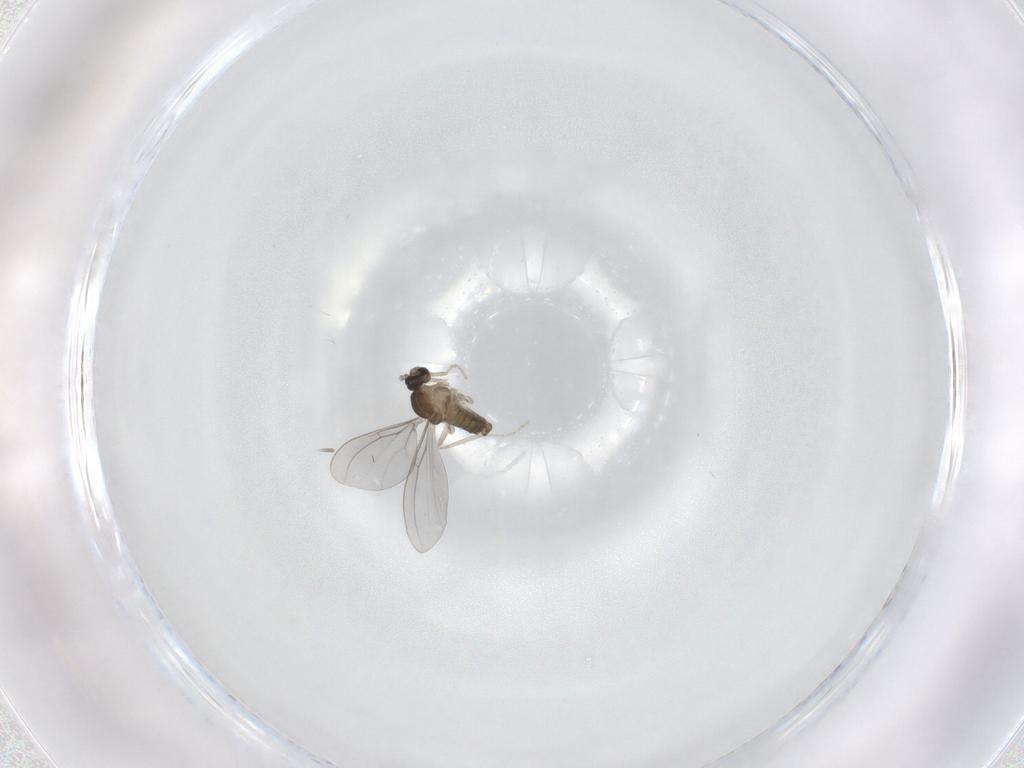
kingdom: Animalia
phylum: Arthropoda
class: Insecta
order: Diptera
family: Cecidomyiidae
